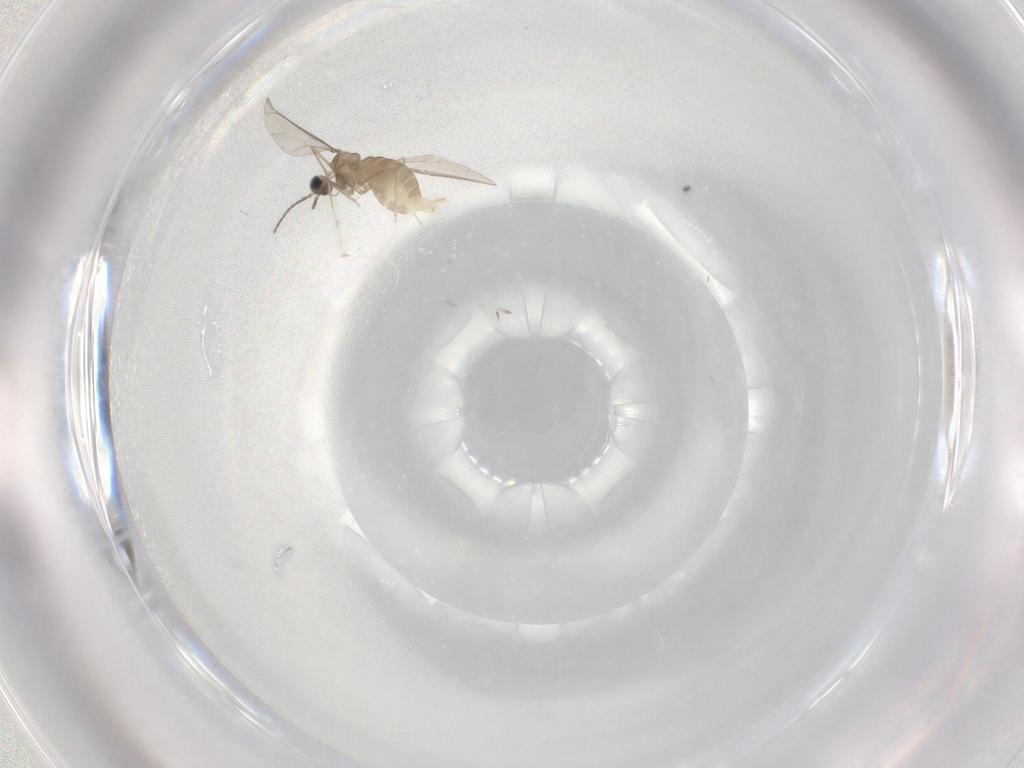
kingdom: Animalia
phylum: Arthropoda
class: Insecta
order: Diptera
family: Cecidomyiidae
